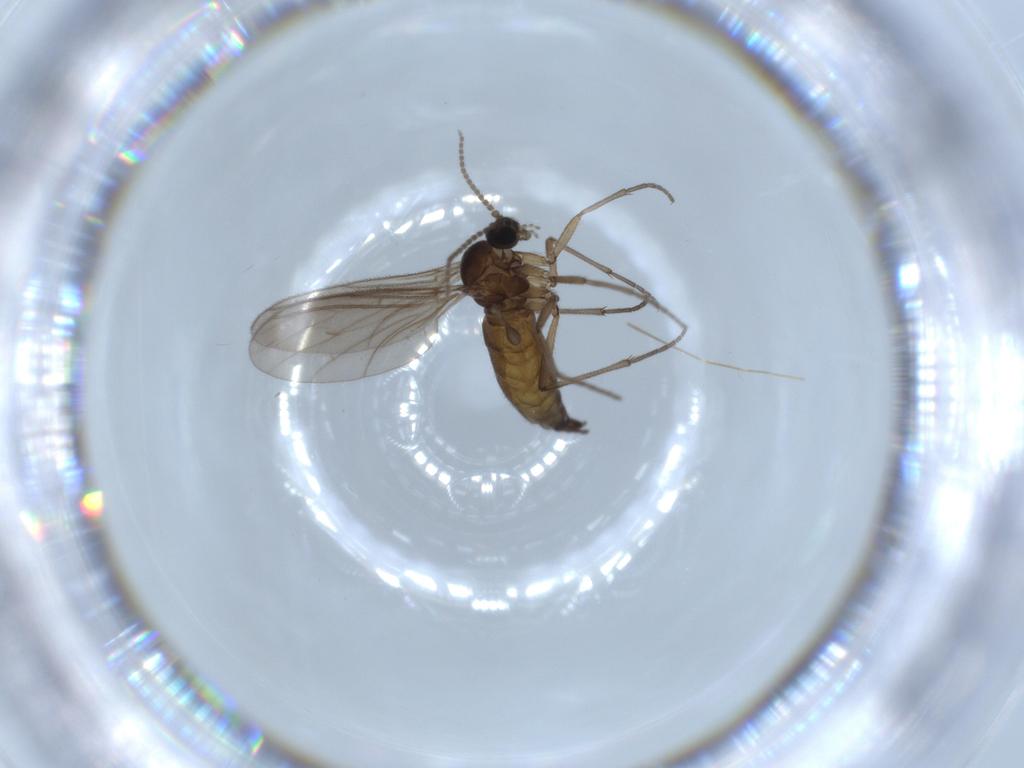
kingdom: Animalia
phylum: Arthropoda
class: Insecta
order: Diptera
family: Sciaridae
